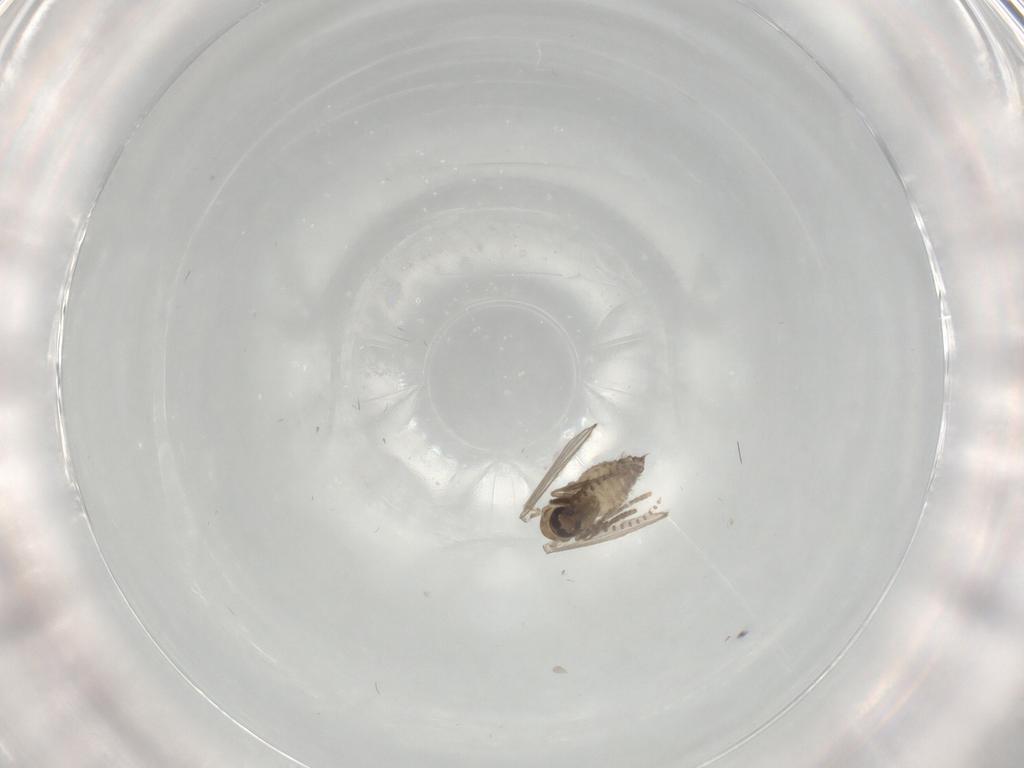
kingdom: Animalia
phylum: Arthropoda
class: Insecta
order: Diptera
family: Psychodidae
